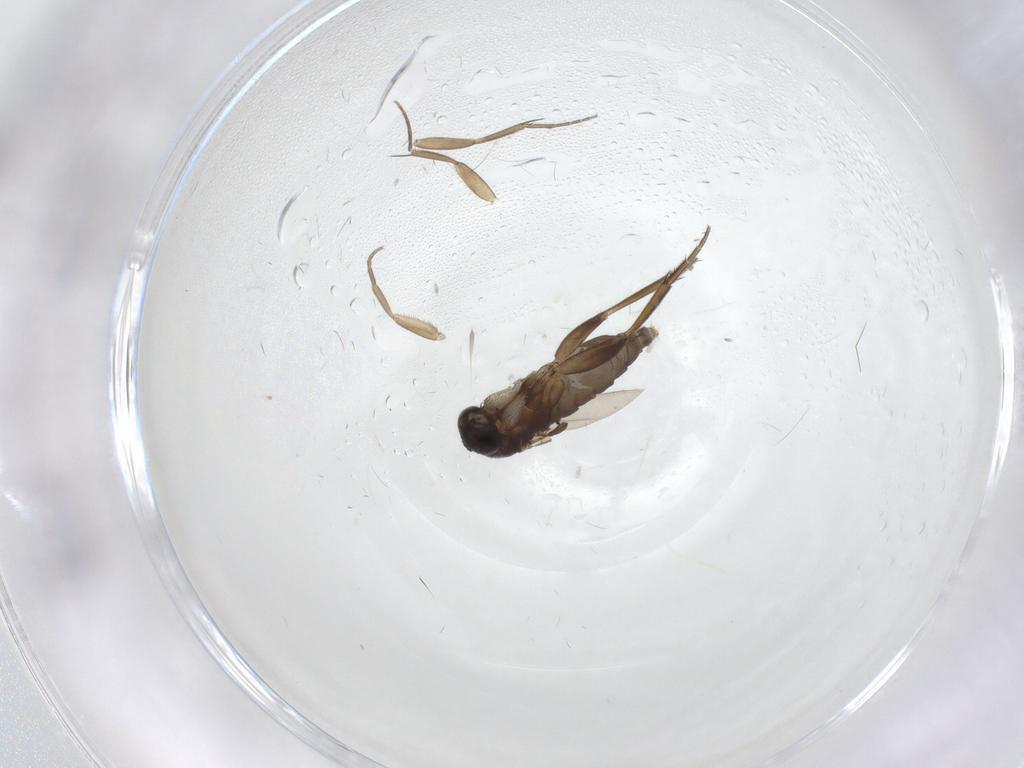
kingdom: Animalia
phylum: Arthropoda
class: Insecta
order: Diptera
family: Phoridae
